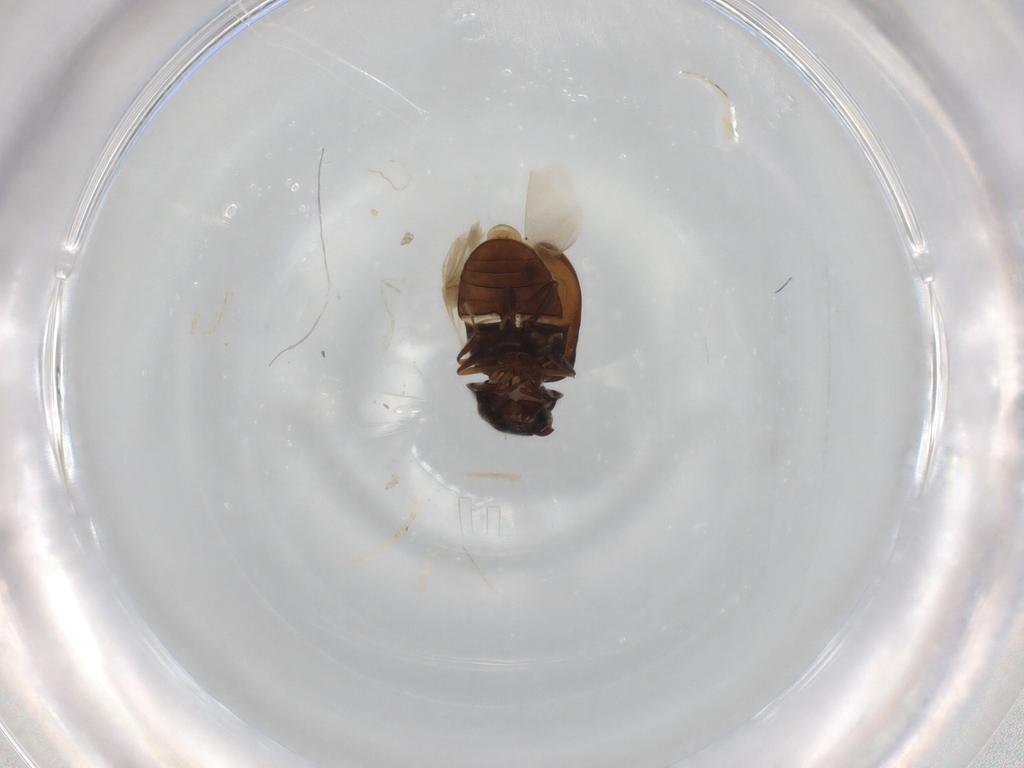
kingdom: Animalia
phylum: Arthropoda
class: Insecta
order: Coleoptera
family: Ptinidae
